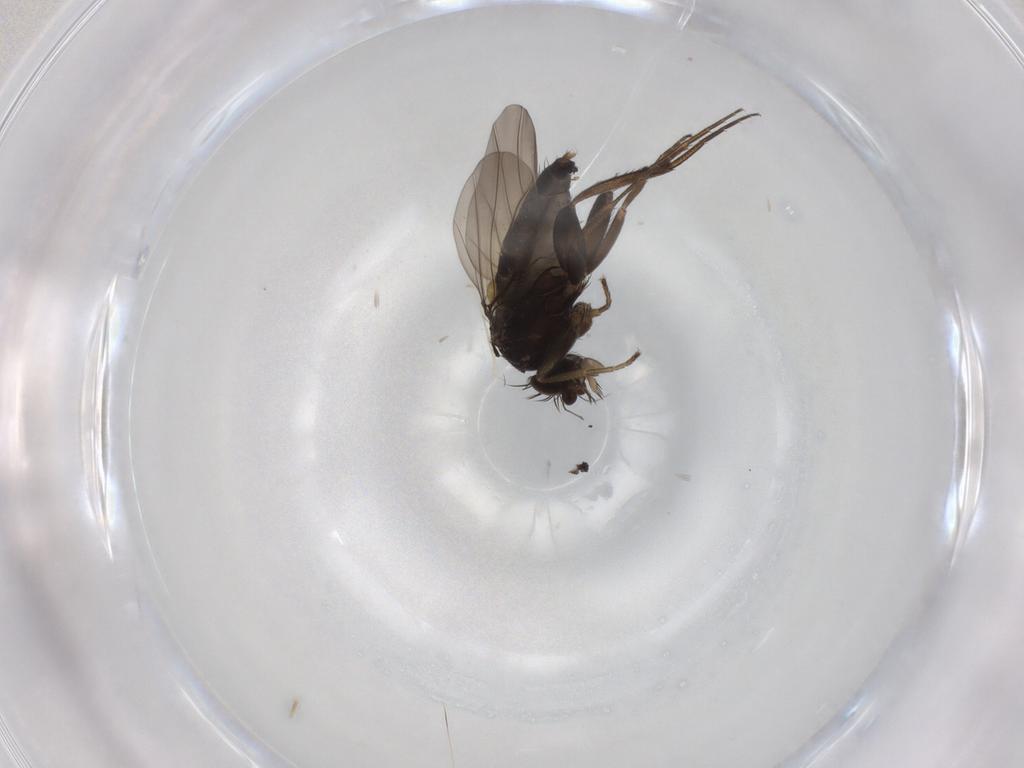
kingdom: Animalia
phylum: Arthropoda
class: Insecta
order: Diptera
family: Phoridae
